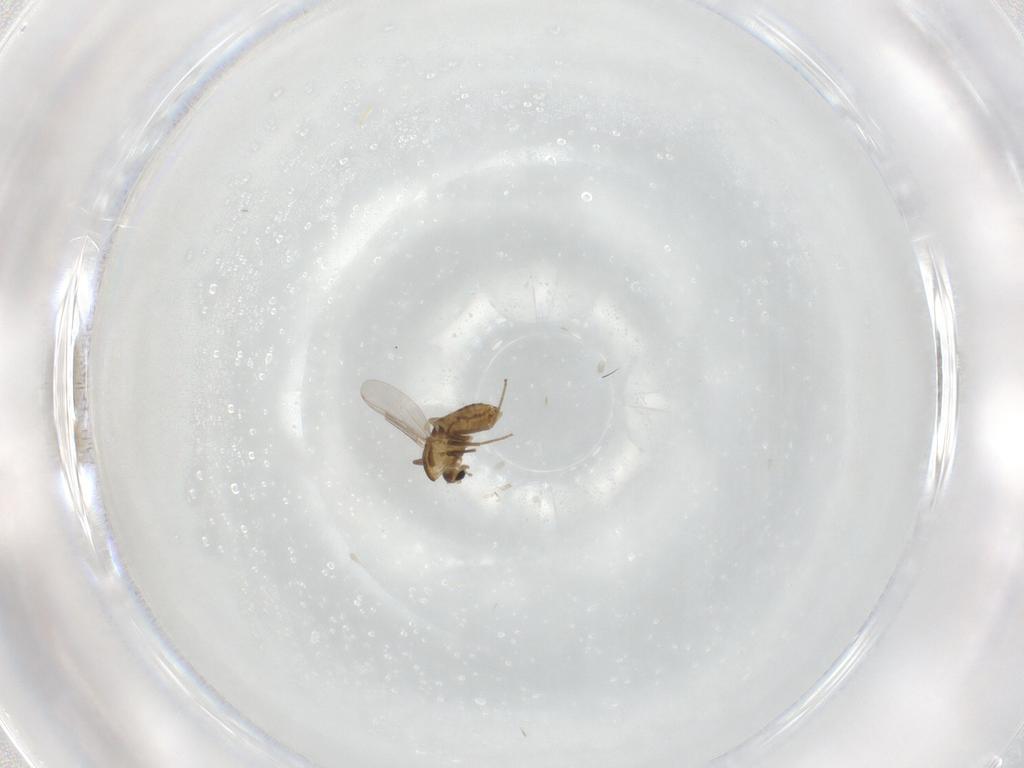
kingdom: Animalia
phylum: Arthropoda
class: Insecta
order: Diptera
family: Chironomidae
